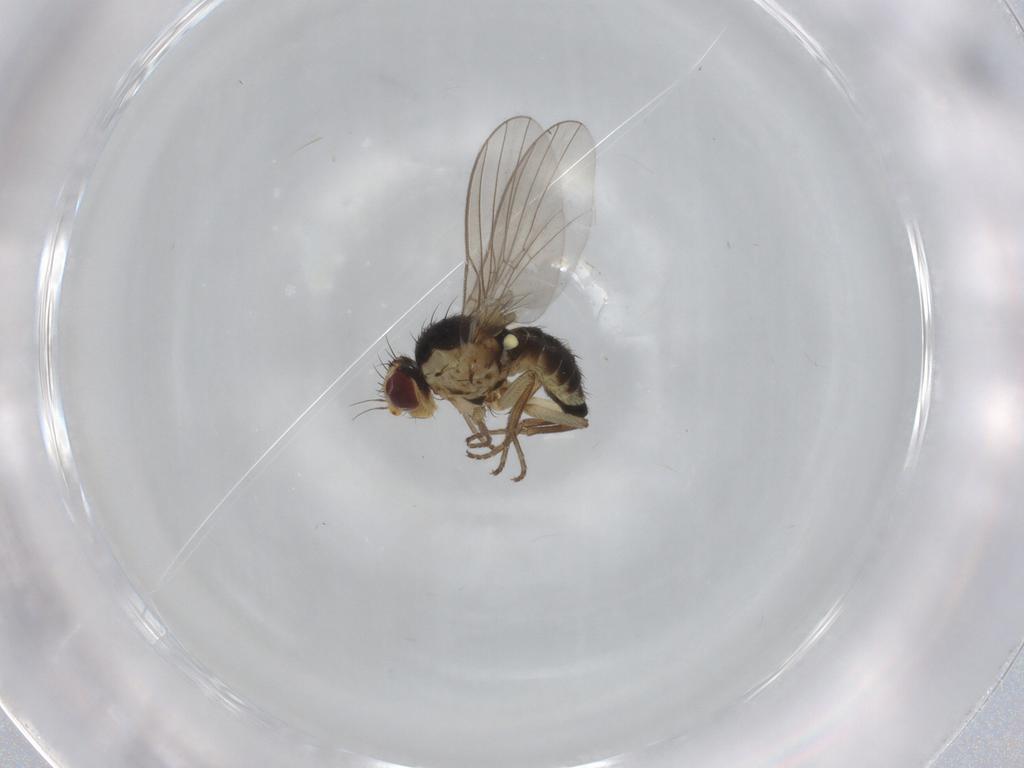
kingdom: Animalia
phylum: Arthropoda
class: Insecta
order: Diptera
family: Agromyzidae
